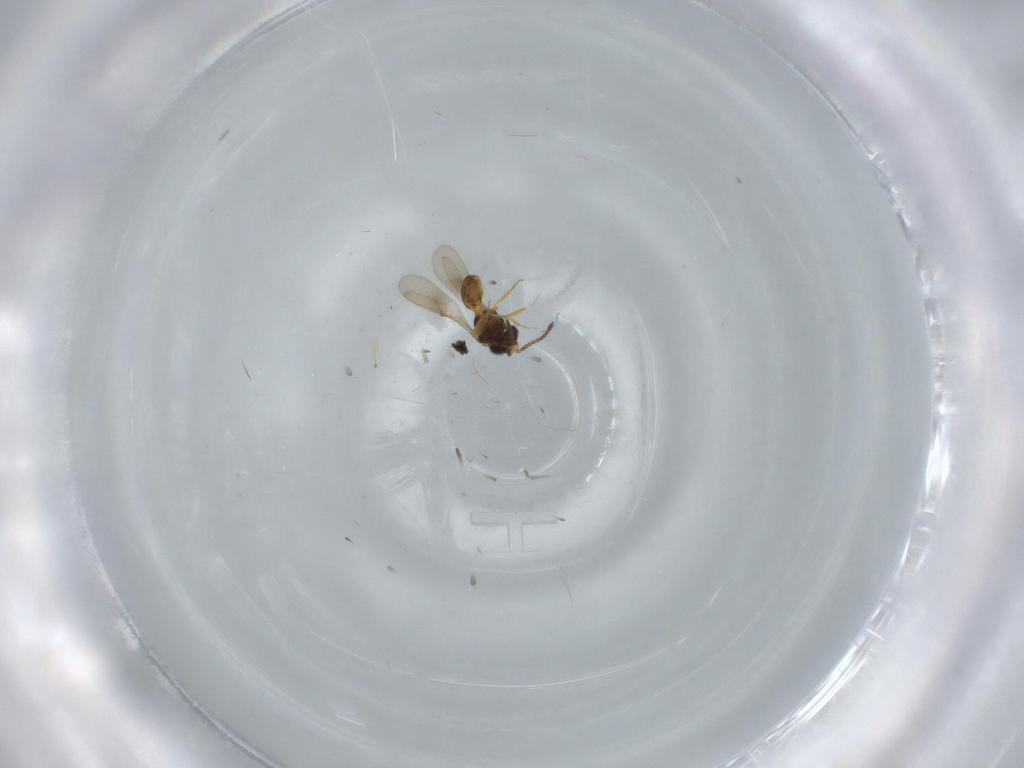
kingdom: Animalia
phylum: Arthropoda
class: Insecta
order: Hymenoptera
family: Scelionidae
